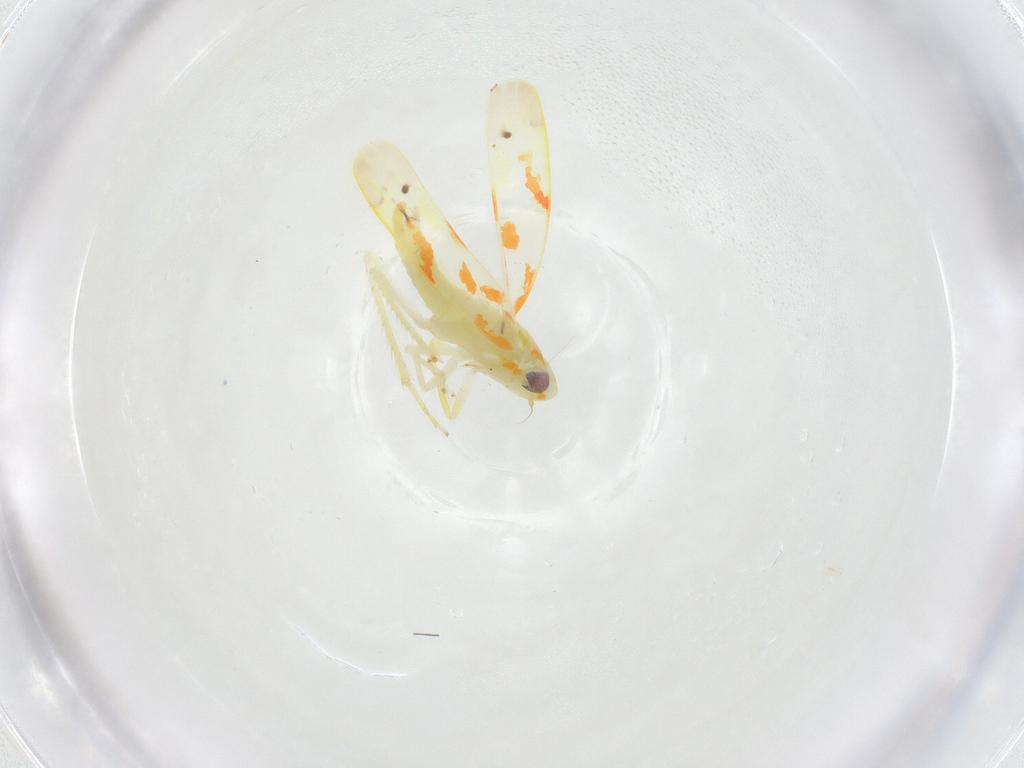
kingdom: Animalia
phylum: Arthropoda
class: Insecta
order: Hemiptera
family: Cicadellidae
